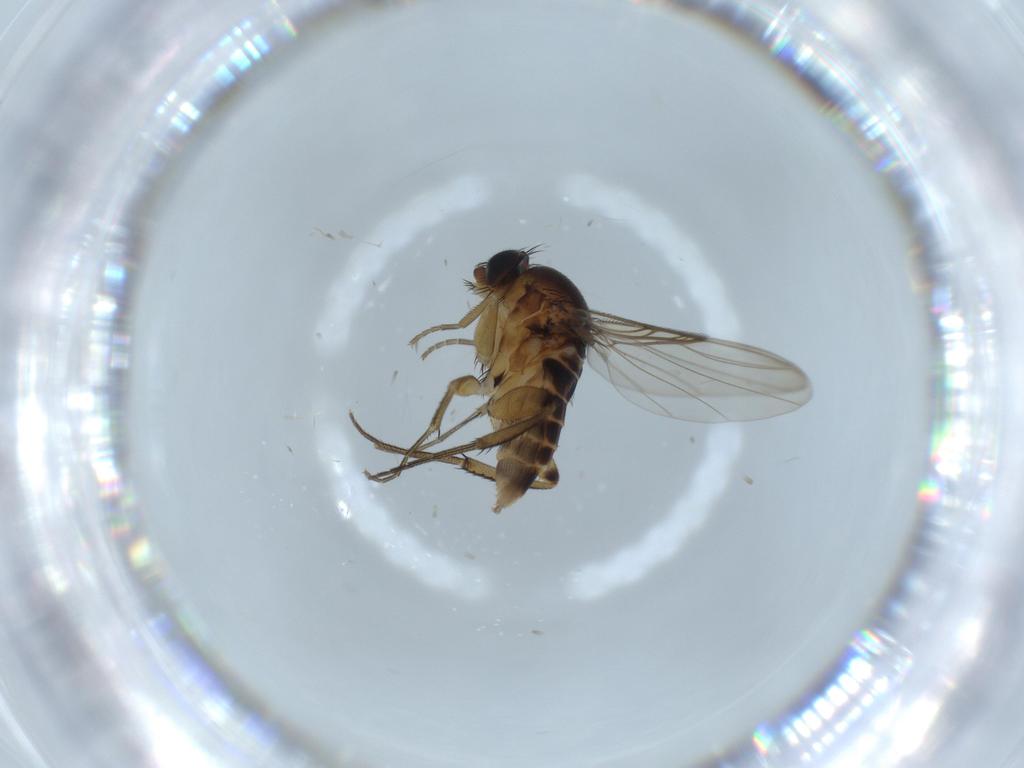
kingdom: Animalia
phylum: Arthropoda
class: Insecta
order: Diptera
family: Phoridae
